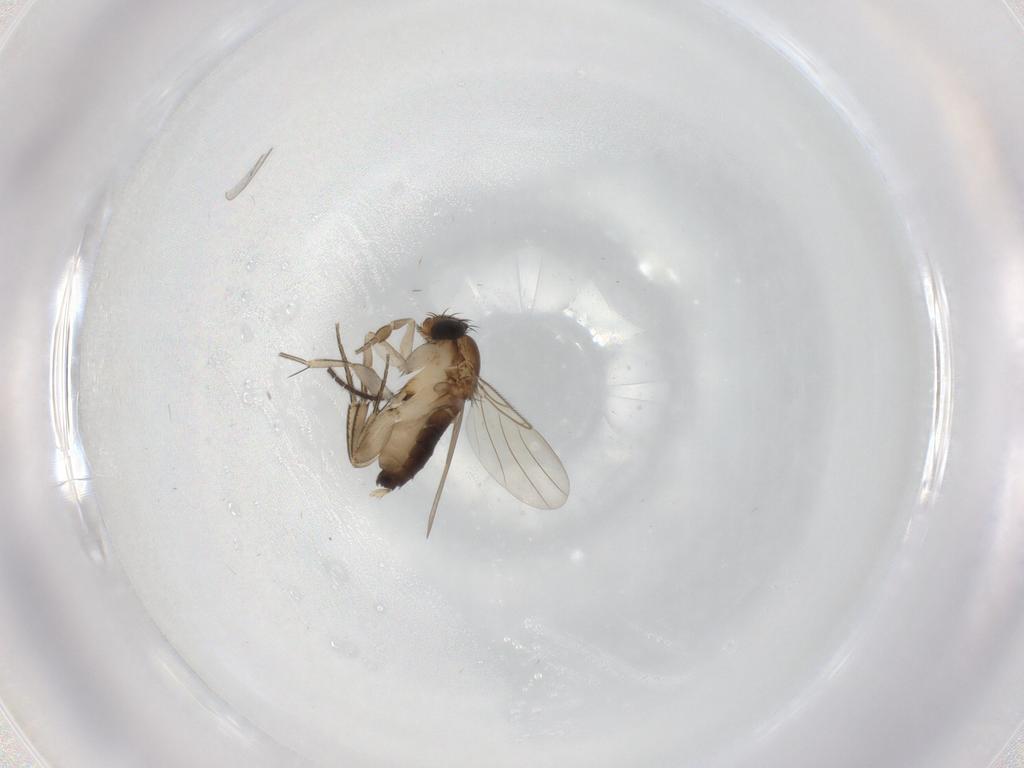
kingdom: Animalia
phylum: Arthropoda
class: Insecta
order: Diptera
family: Phoridae
